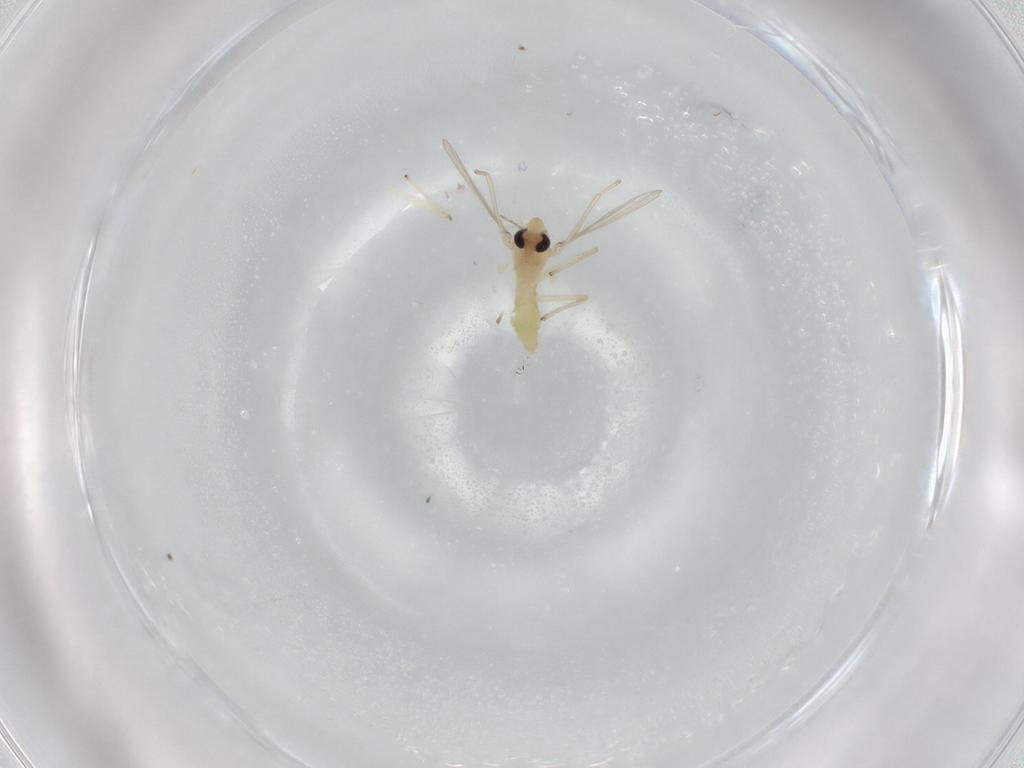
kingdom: Animalia
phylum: Arthropoda
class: Insecta
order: Diptera
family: Chironomidae
